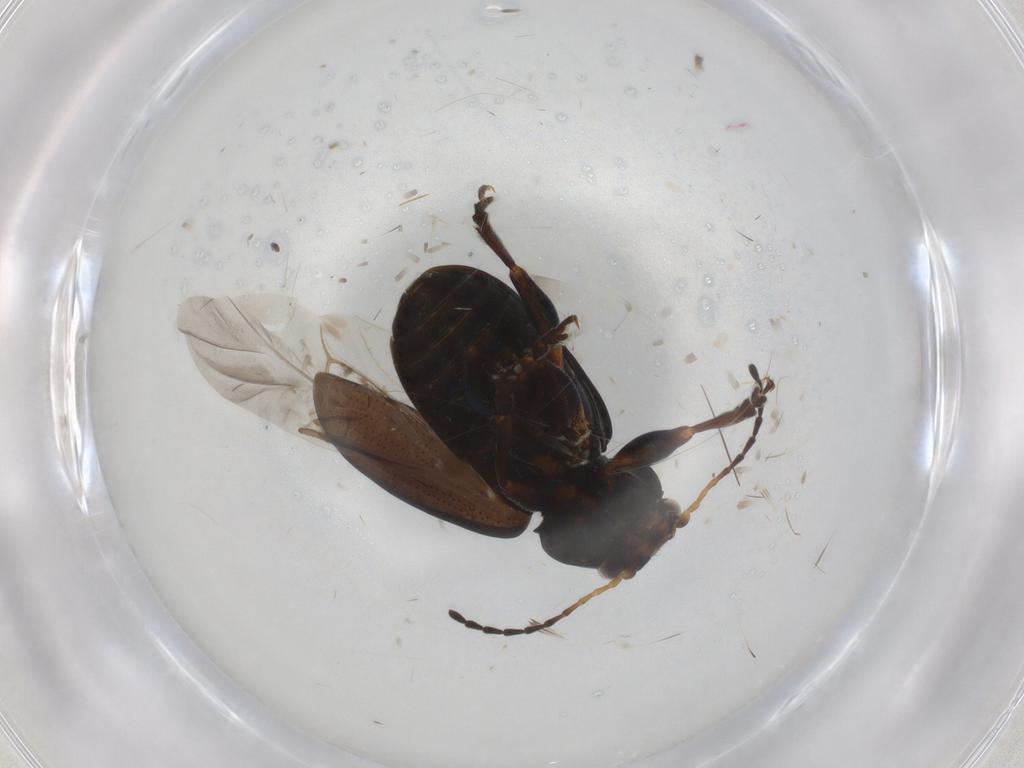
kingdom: Animalia
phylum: Arthropoda
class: Insecta
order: Coleoptera
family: Chrysomelidae
